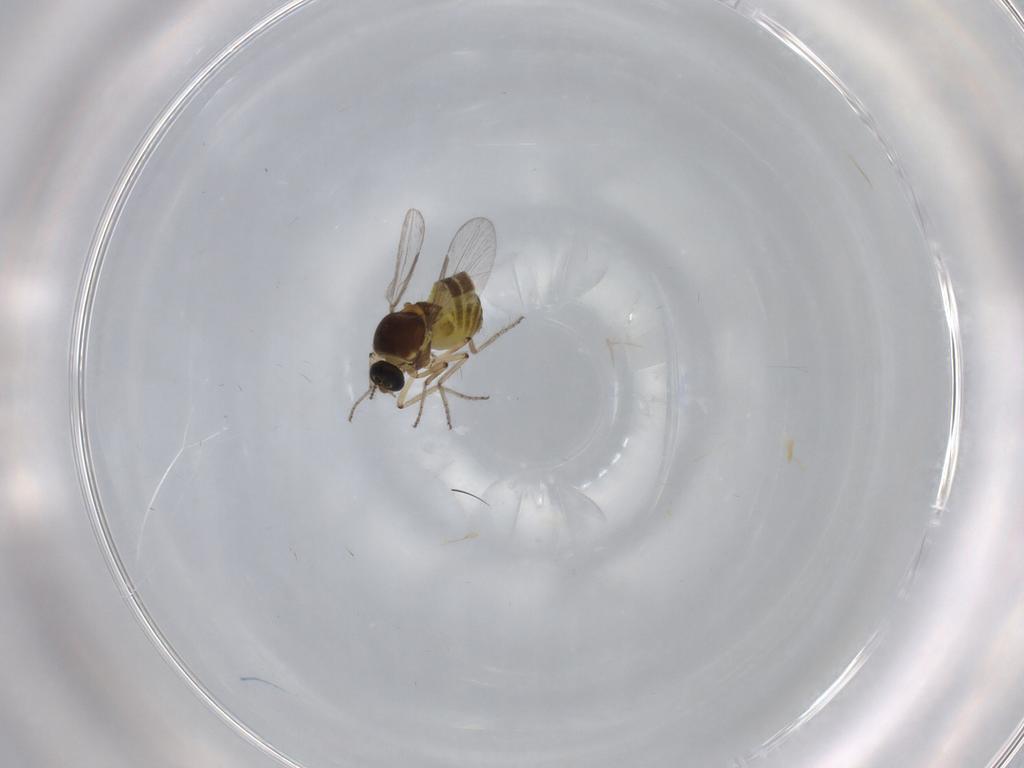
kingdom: Animalia
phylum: Arthropoda
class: Insecta
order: Diptera
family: Ceratopogonidae
